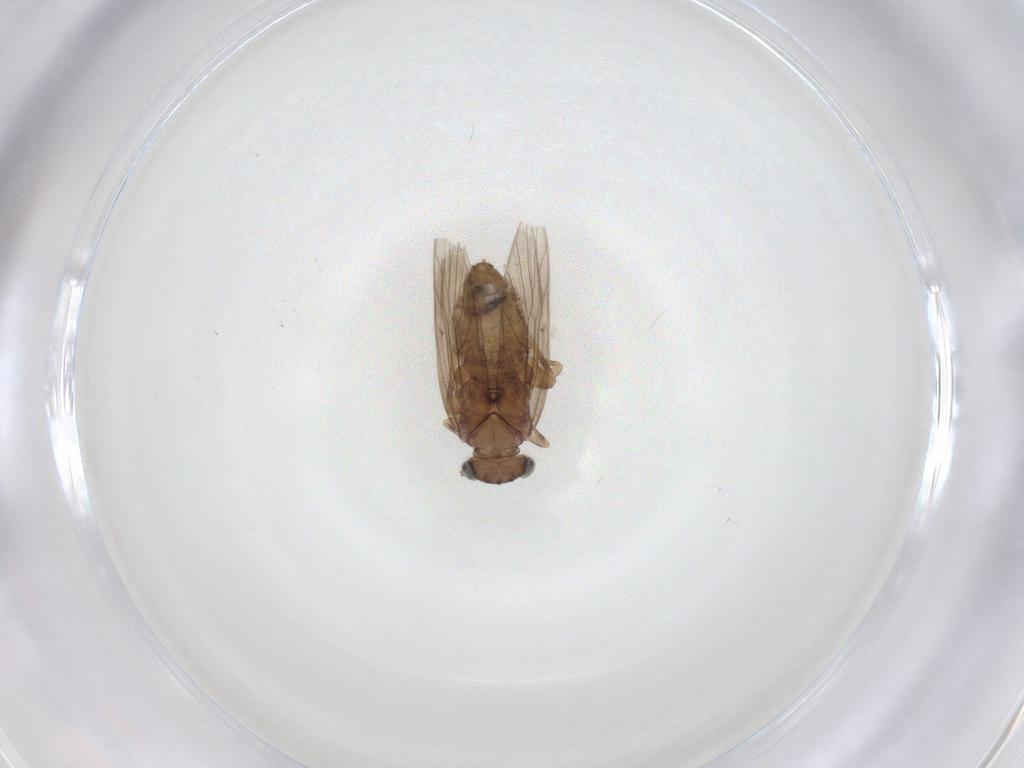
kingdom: Animalia
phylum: Arthropoda
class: Insecta
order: Psocodea
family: Lepidopsocidae
